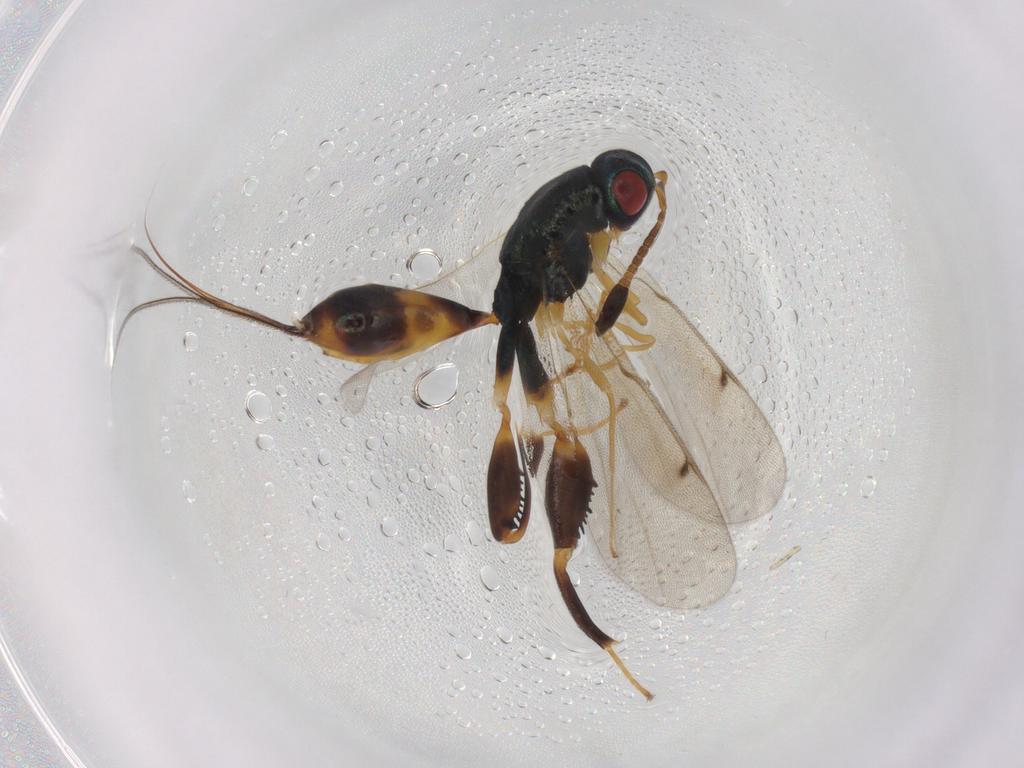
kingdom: Animalia
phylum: Arthropoda
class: Insecta
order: Hymenoptera
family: Torymidae
